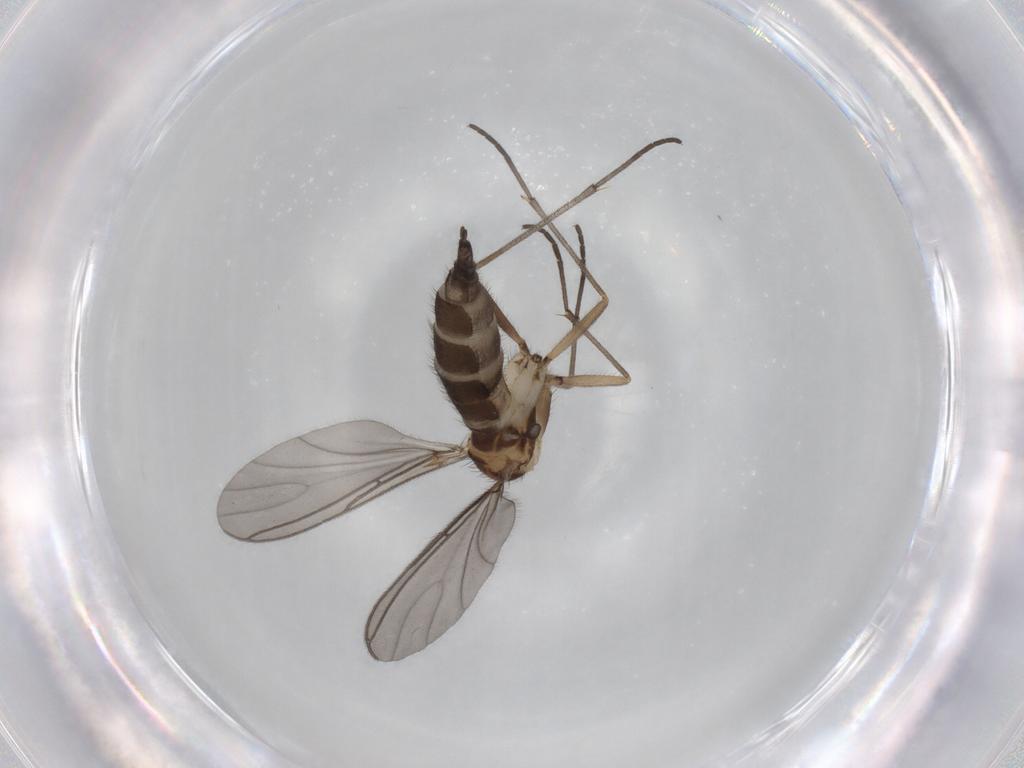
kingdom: Animalia
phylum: Arthropoda
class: Insecta
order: Diptera
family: Sciaridae
